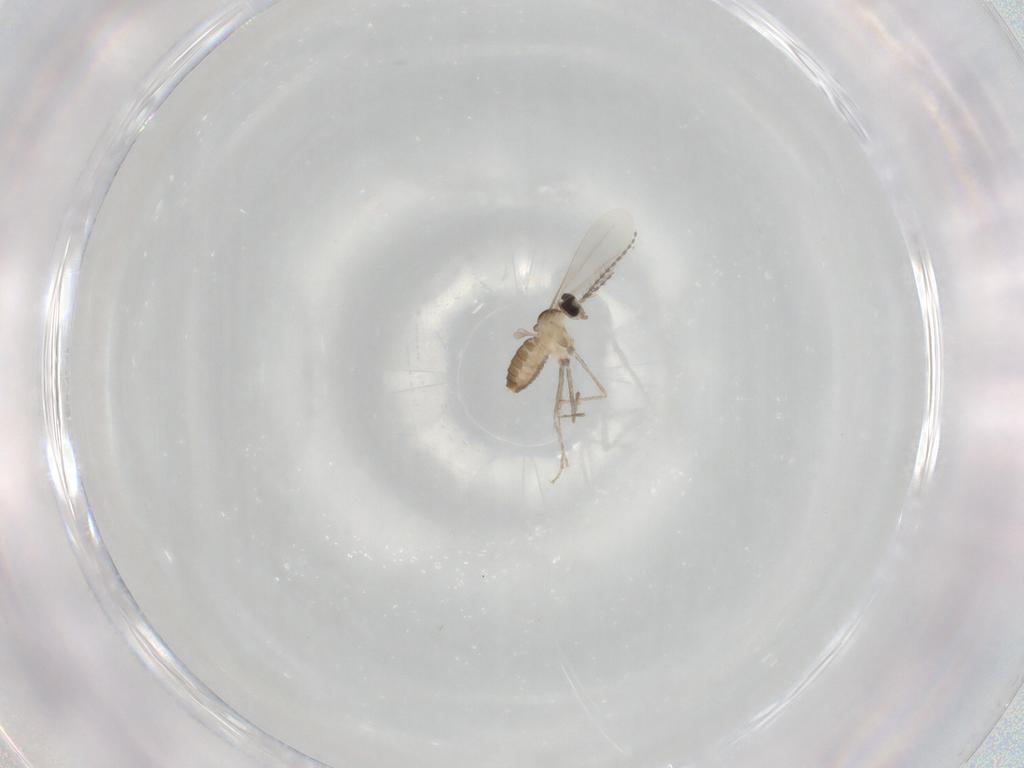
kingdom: Animalia
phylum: Arthropoda
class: Insecta
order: Diptera
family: Cecidomyiidae
